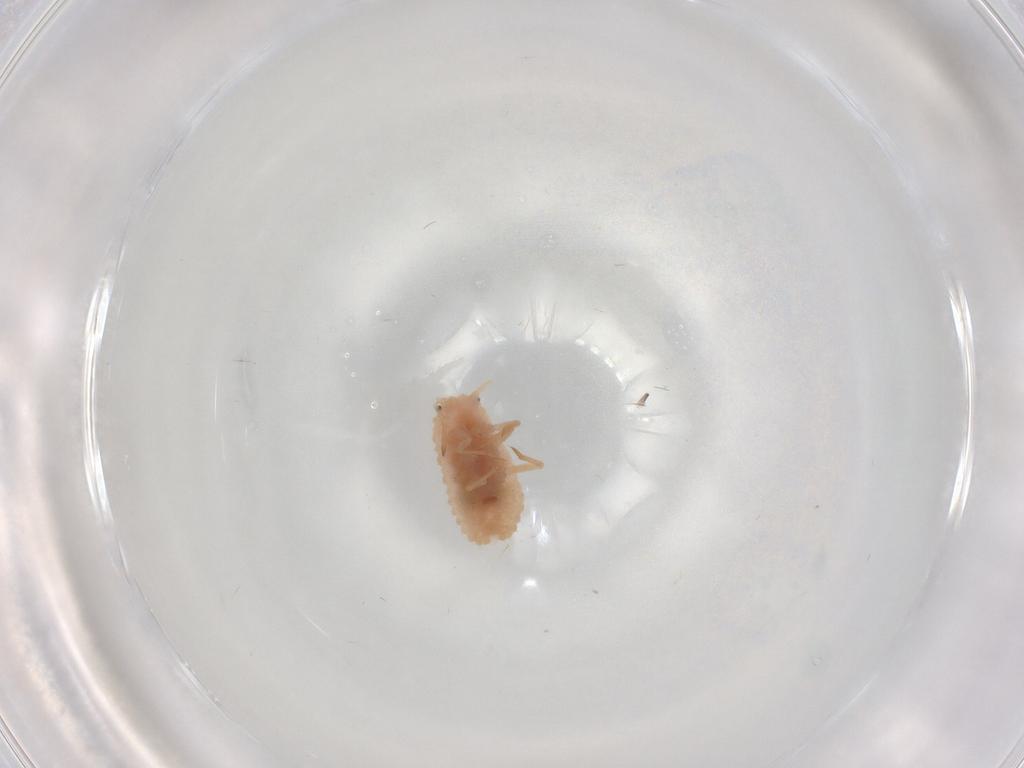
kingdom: Animalia
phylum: Arthropoda
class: Insecta
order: Hemiptera
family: Coccoidea_incertae_sedis
